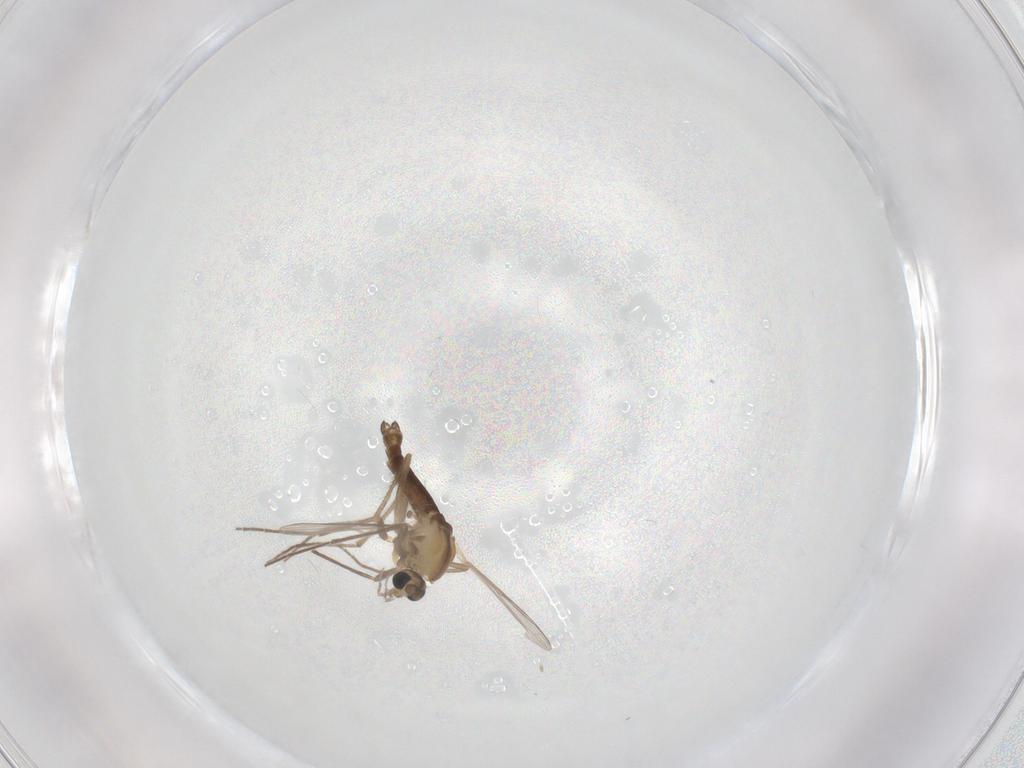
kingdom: Animalia
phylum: Arthropoda
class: Insecta
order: Diptera
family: Chironomidae
